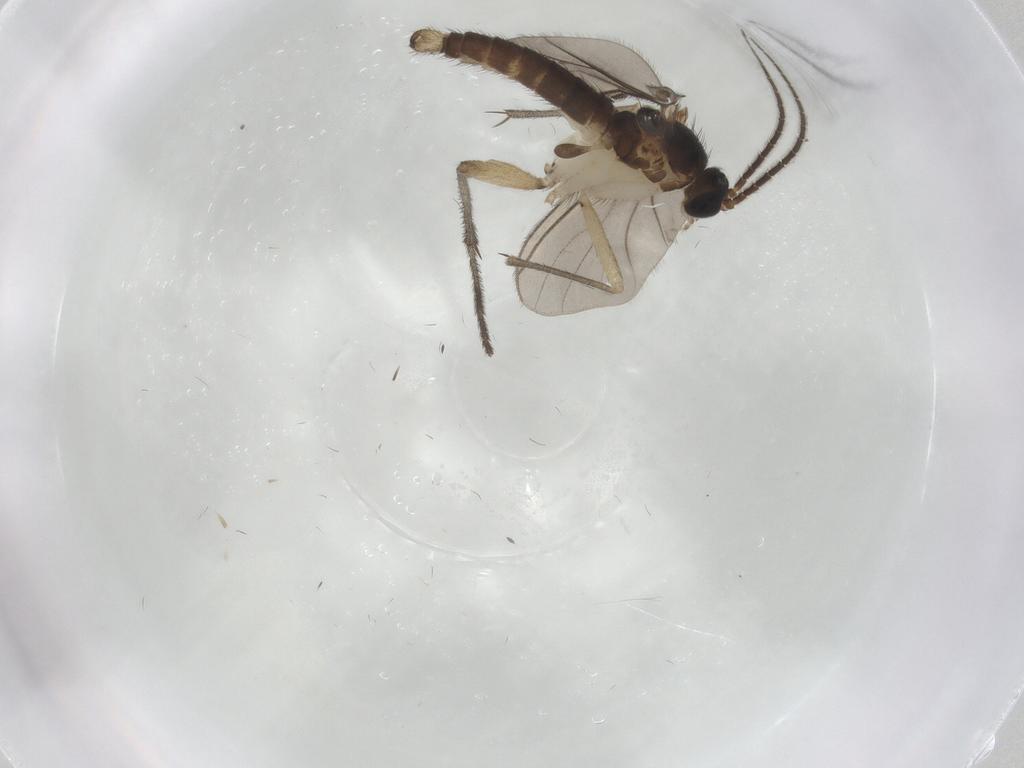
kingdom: Animalia
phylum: Arthropoda
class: Insecta
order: Diptera
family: Sciaridae
